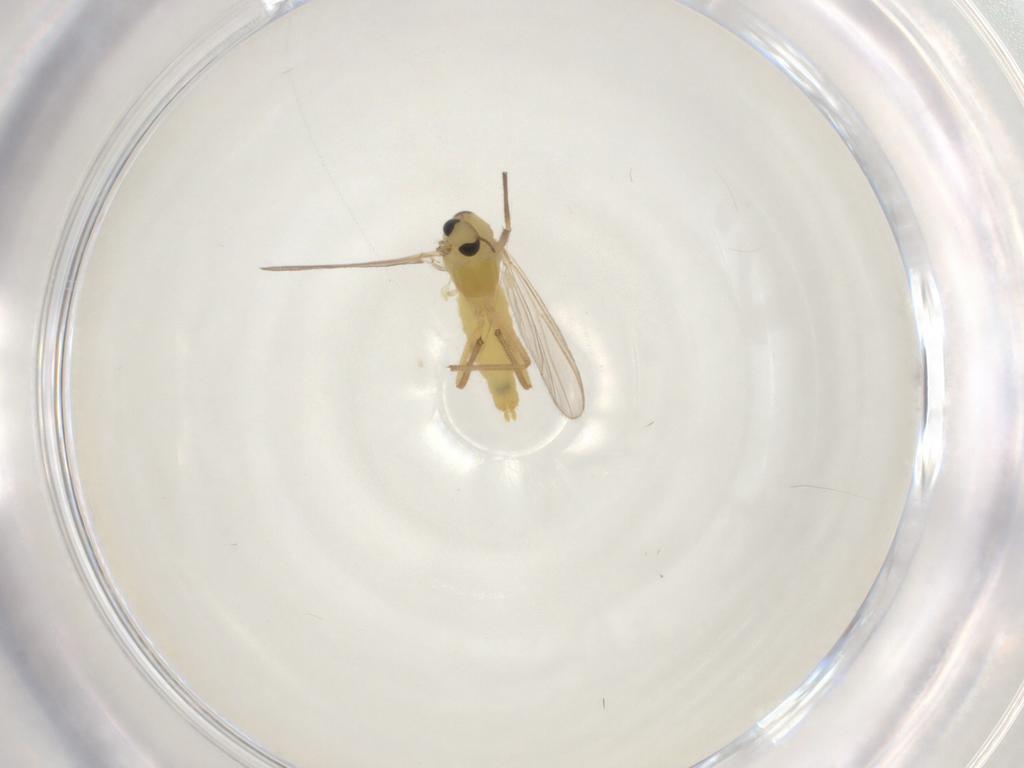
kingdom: Animalia
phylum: Arthropoda
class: Insecta
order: Diptera
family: Chironomidae
